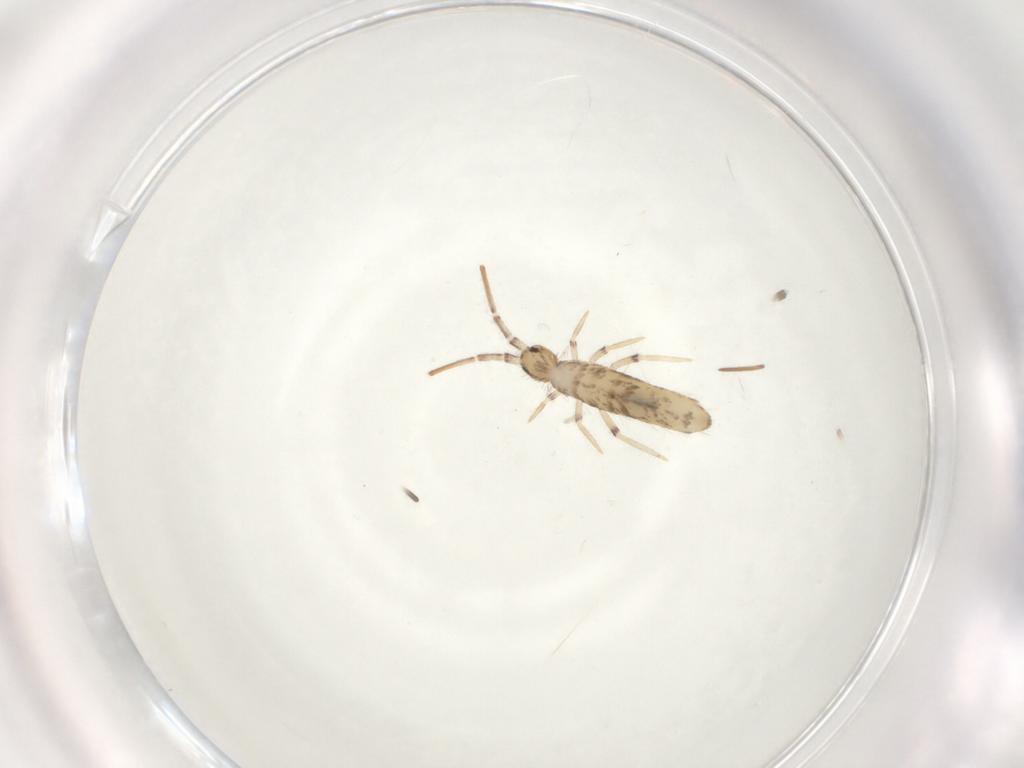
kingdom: Animalia
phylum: Arthropoda
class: Collembola
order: Entomobryomorpha
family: Entomobryidae
